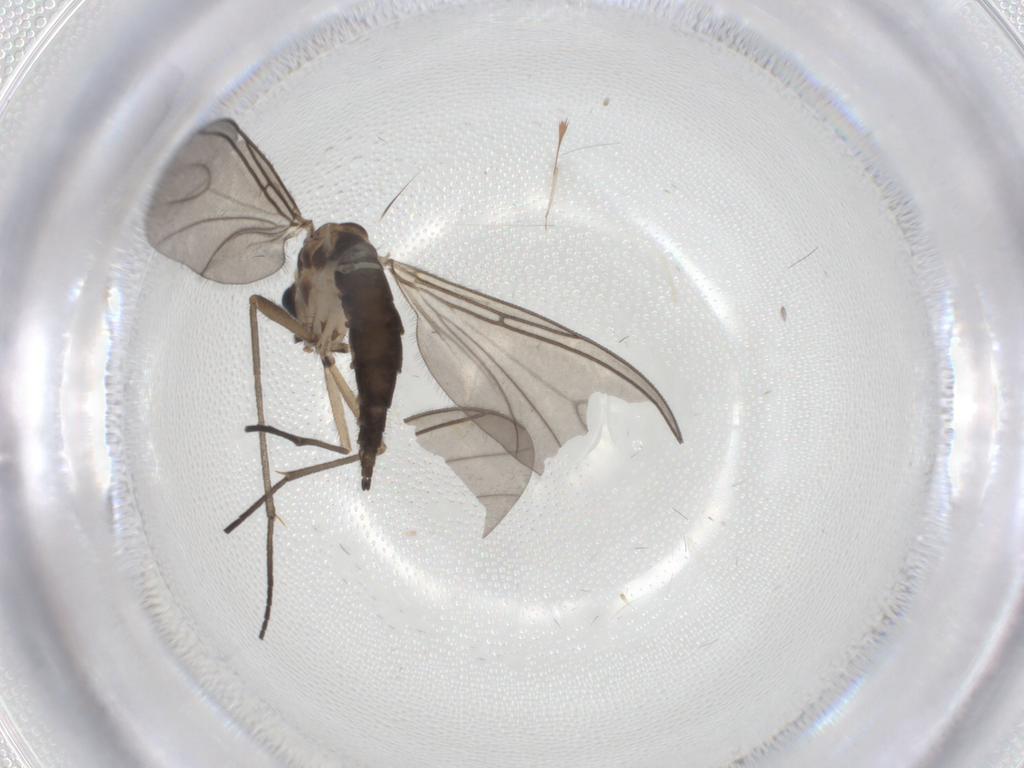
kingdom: Animalia
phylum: Arthropoda
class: Insecta
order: Diptera
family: Sciaridae
